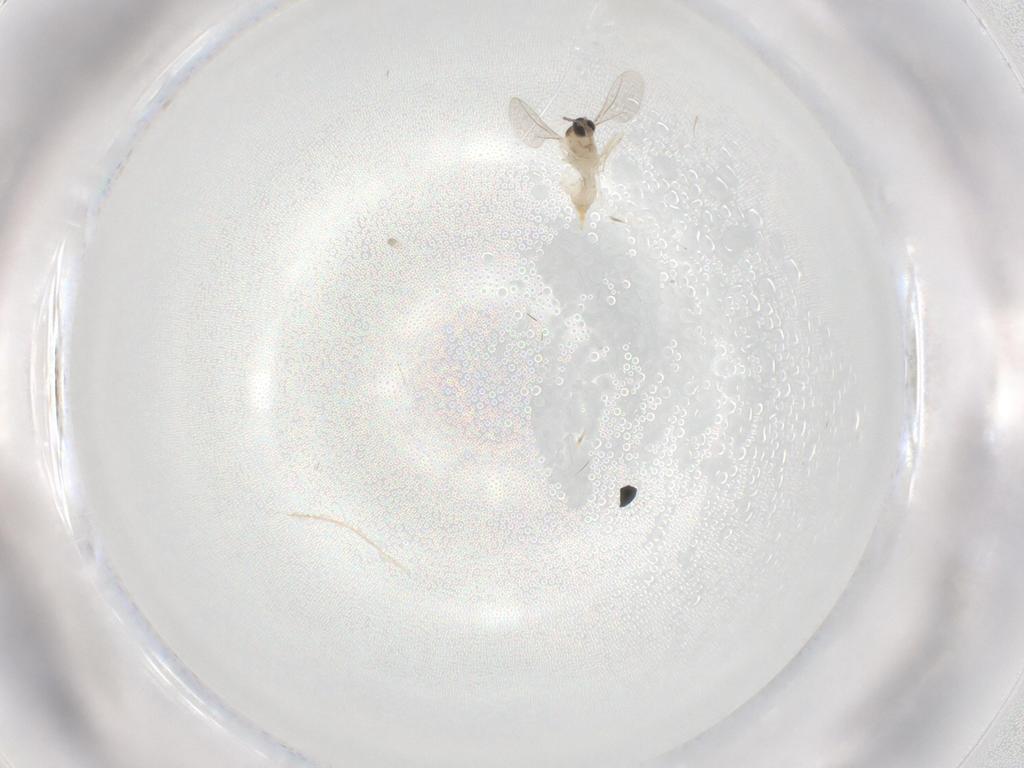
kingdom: Animalia
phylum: Arthropoda
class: Insecta
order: Diptera
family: Cecidomyiidae
